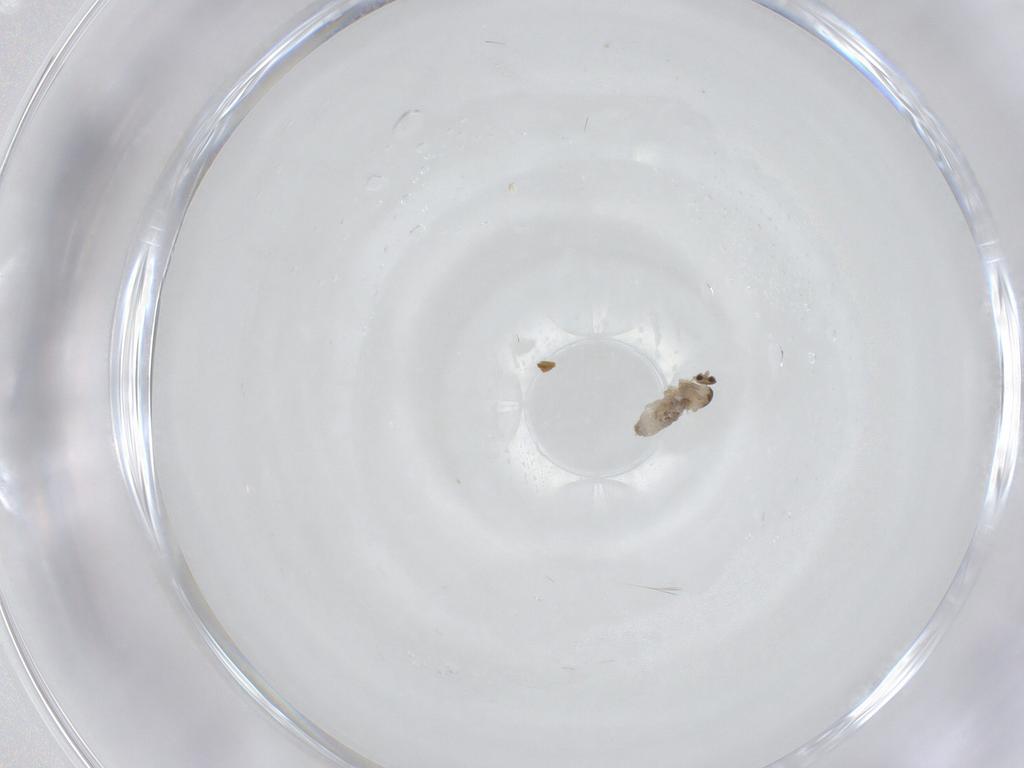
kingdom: Animalia
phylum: Arthropoda
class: Insecta
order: Diptera
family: Cecidomyiidae
